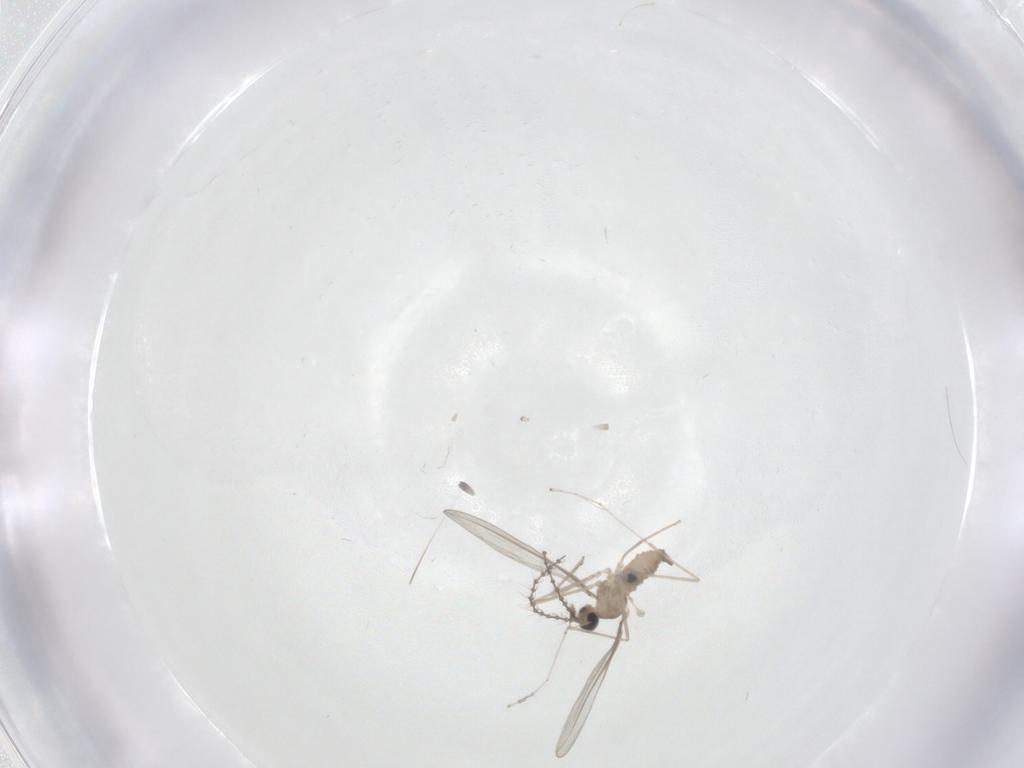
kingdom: Animalia
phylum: Arthropoda
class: Insecta
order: Diptera
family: Cecidomyiidae
